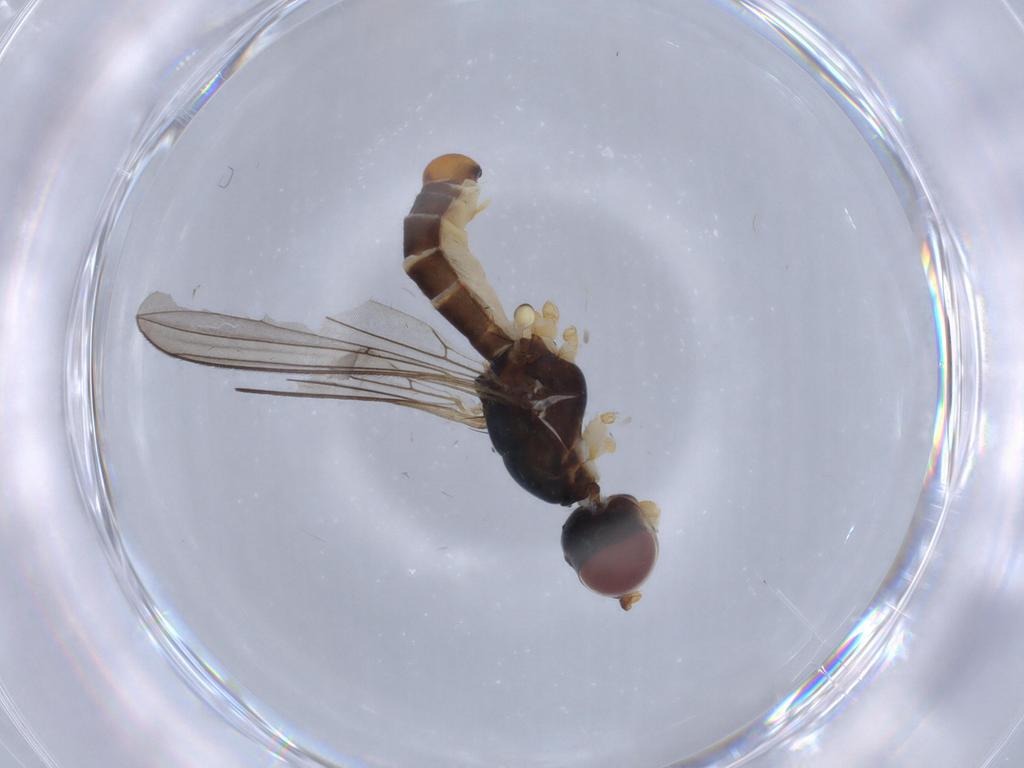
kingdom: Animalia
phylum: Arthropoda
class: Insecta
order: Diptera
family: Micropezidae
